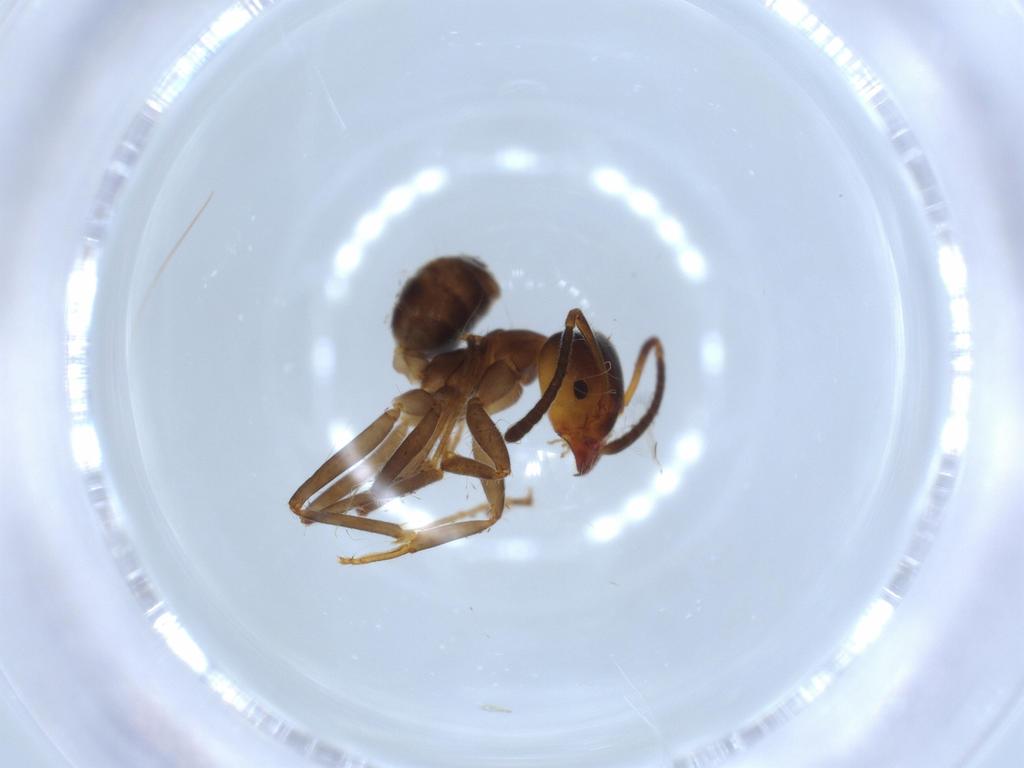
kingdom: Animalia
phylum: Arthropoda
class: Insecta
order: Hymenoptera
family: Formicidae
